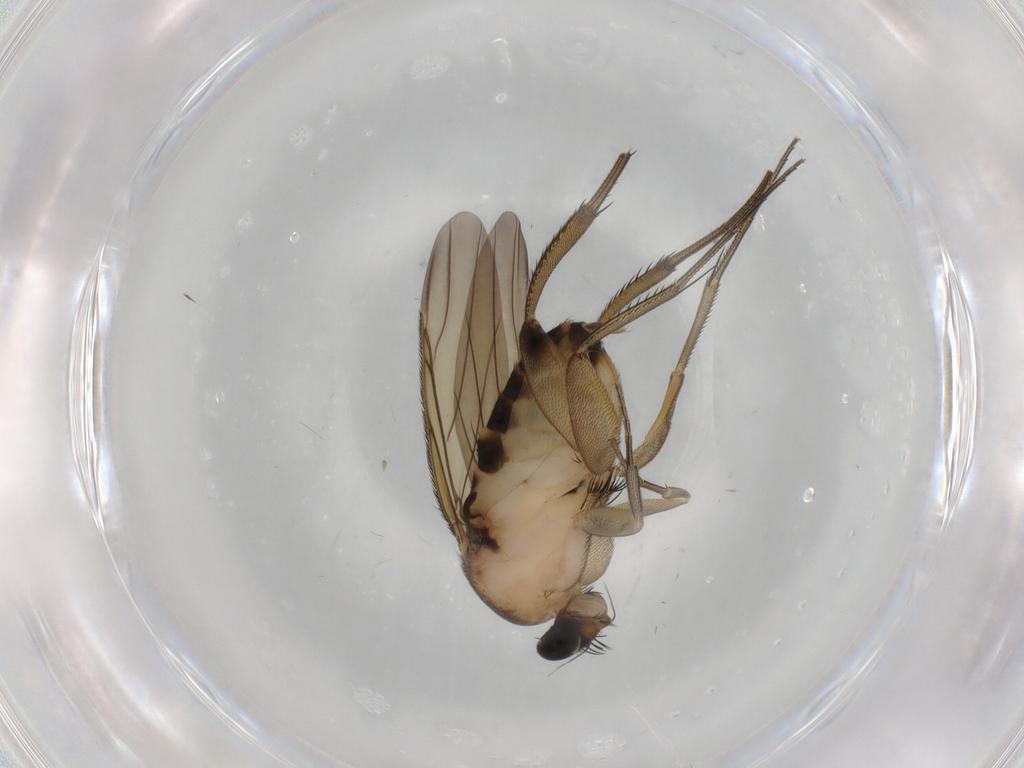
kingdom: Animalia
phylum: Arthropoda
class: Insecta
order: Diptera
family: Phoridae
